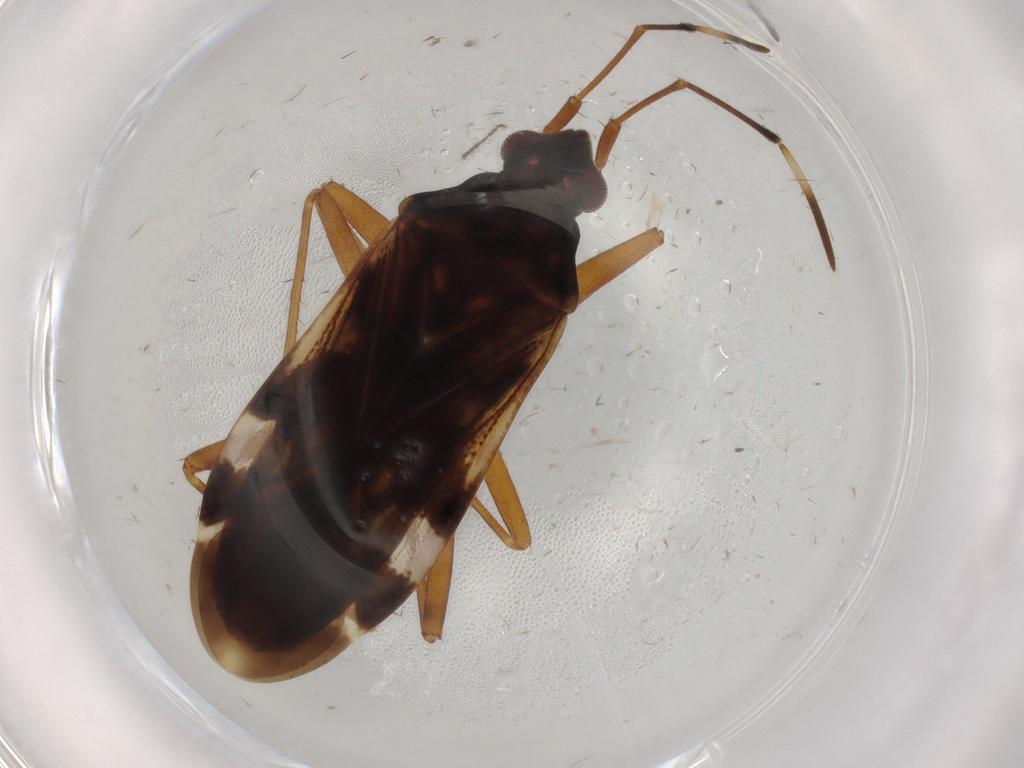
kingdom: Animalia
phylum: Arthropoda
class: Insecta
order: Hemiptera
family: Rhyparochromidae
